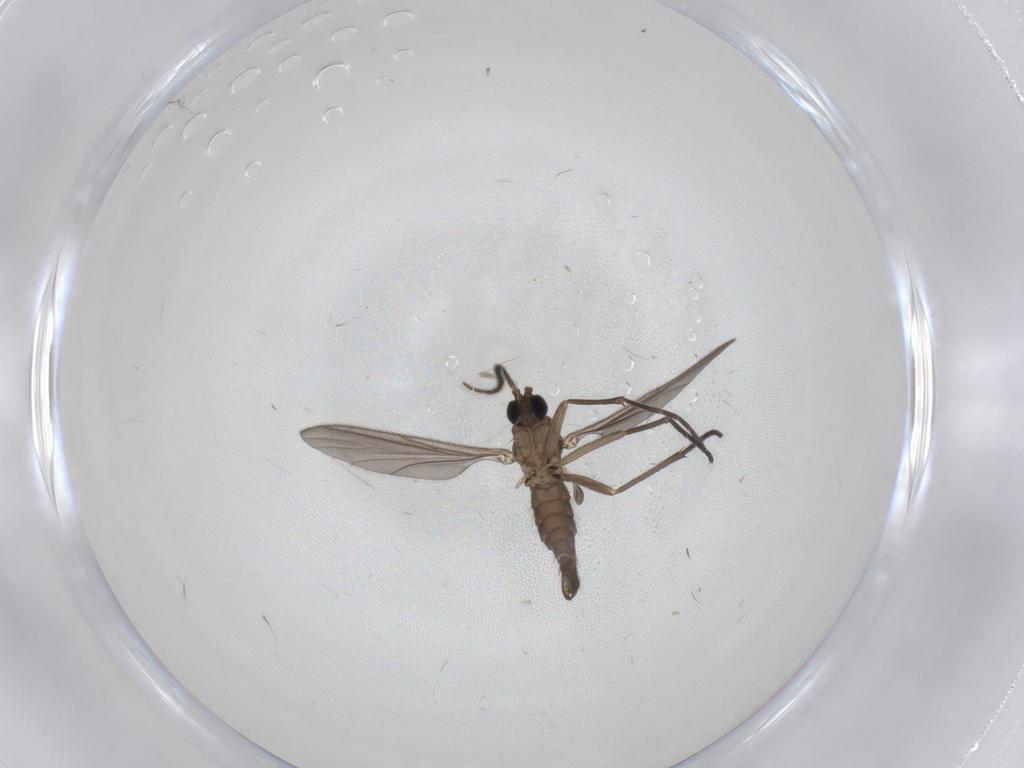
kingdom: Animalia
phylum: Arthropoda
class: Insecta
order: Diptera
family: Sciaridae
